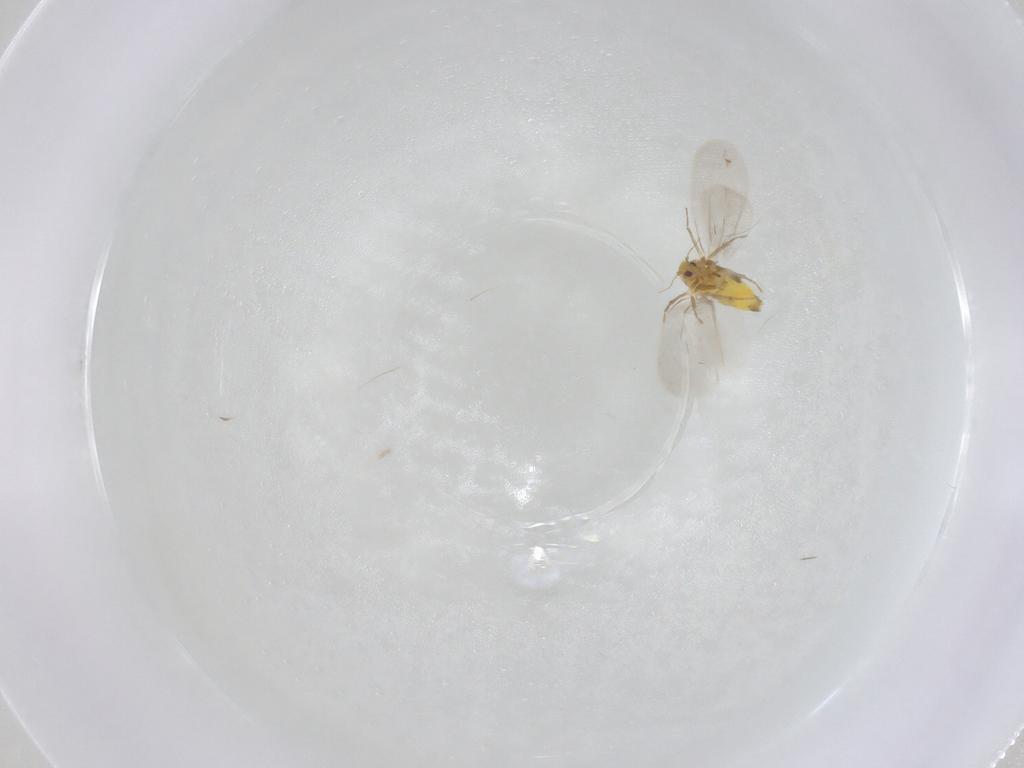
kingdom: Animalia
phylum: Arthropoda
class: Insecta
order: Hemiptera
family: Aleyrodidae
